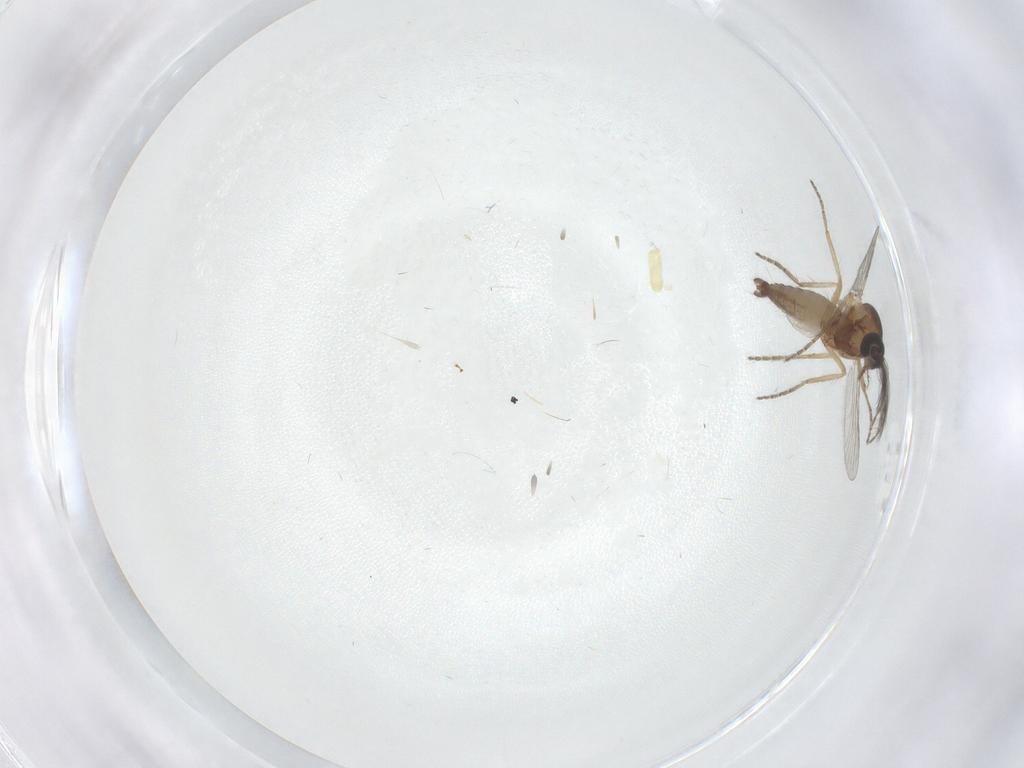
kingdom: Animalia
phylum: Arthropoda
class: Insecta
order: Diptera
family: Ceratopogonidae
